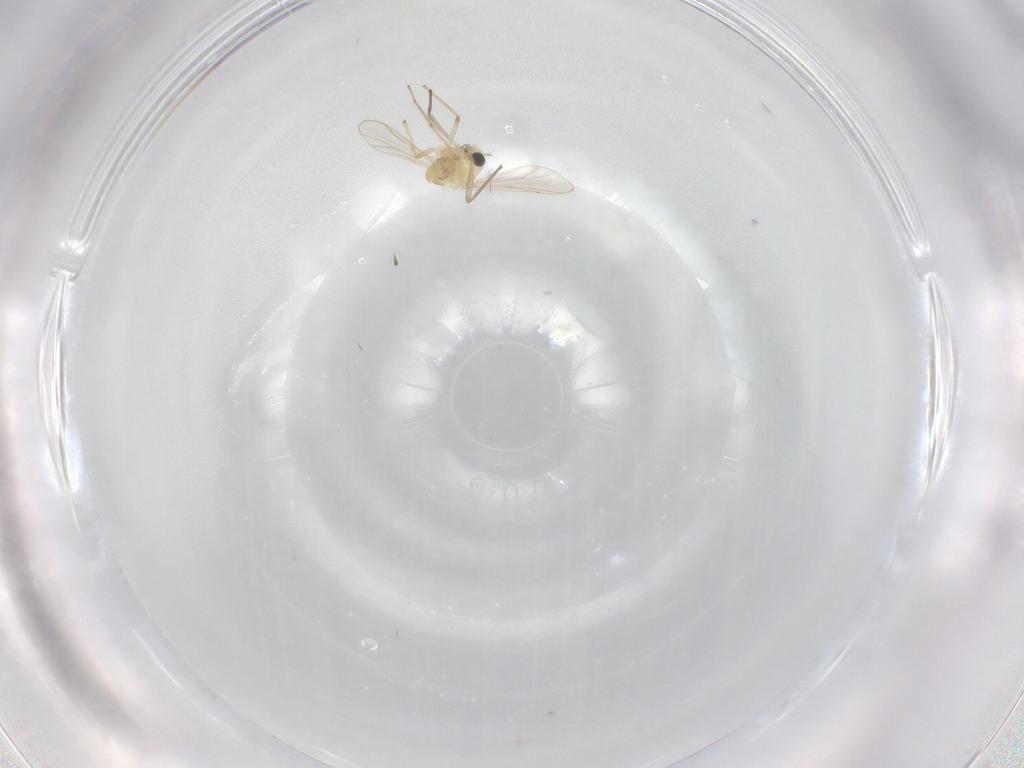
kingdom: Animalia
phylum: Arthropoda
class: Insecta
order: Diptera
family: Chironomidae
